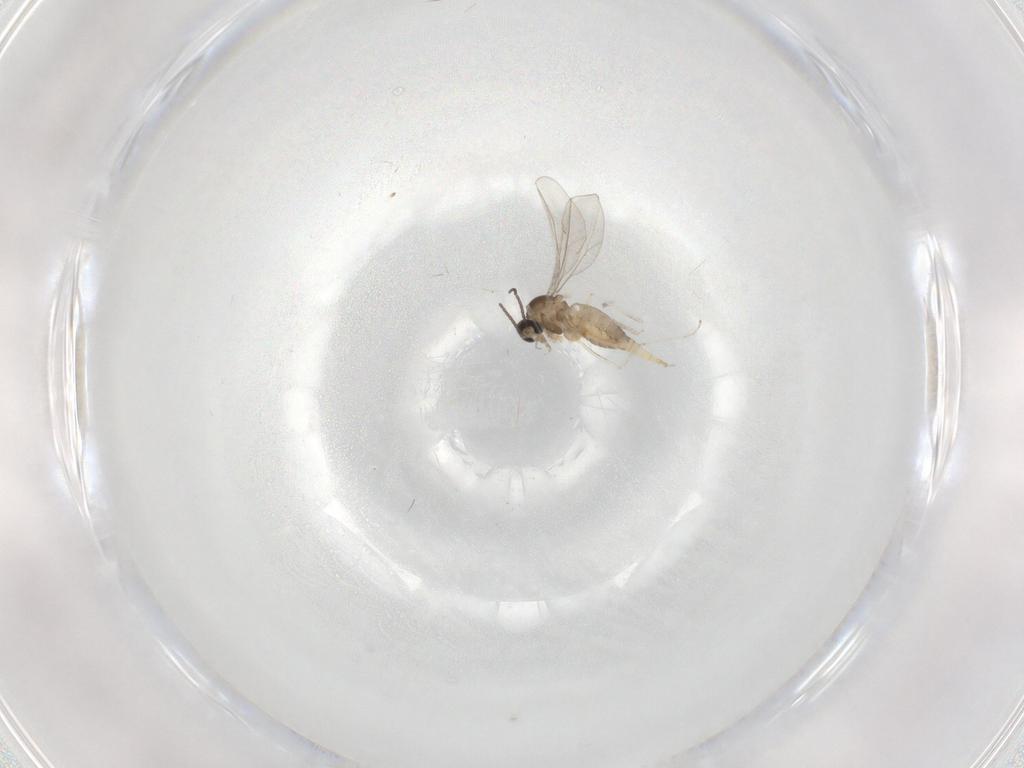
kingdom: Animalia
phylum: Arthropoda
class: Insecta
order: Diptera
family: Cecidomyiidae
